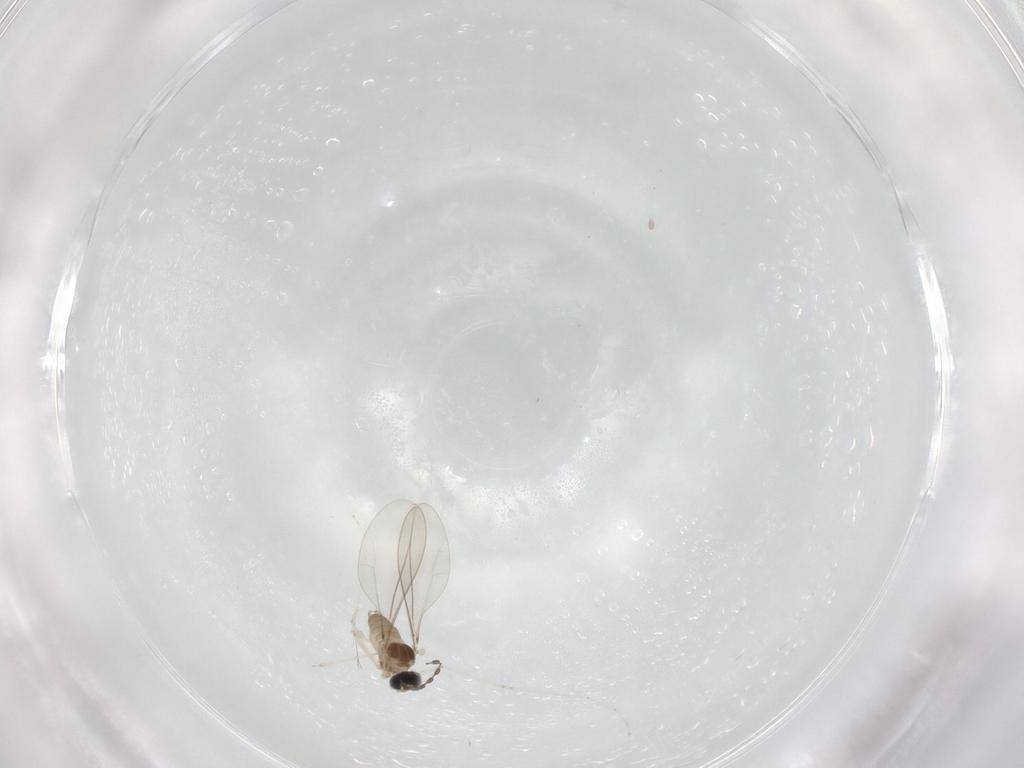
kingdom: Animalia
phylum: Arthropoda
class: Insecta
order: Diptera
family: Cecidomyiidae
